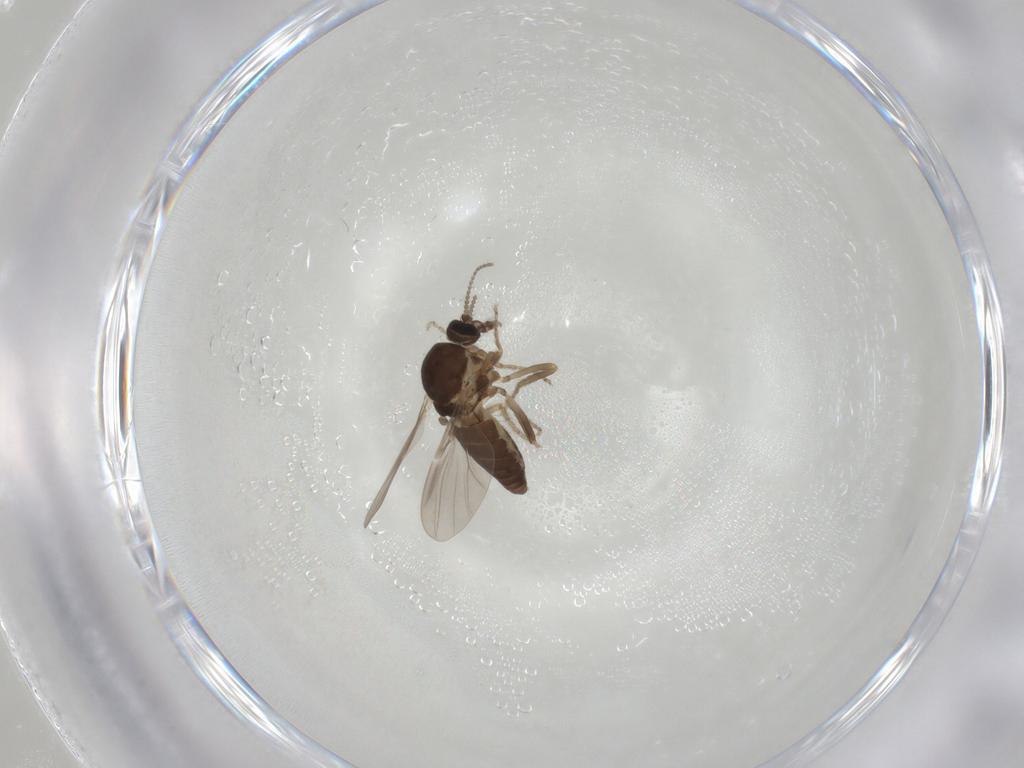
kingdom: Animalia
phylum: Arthropoda
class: Insecta
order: Diptera
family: Ceratopogonidae
